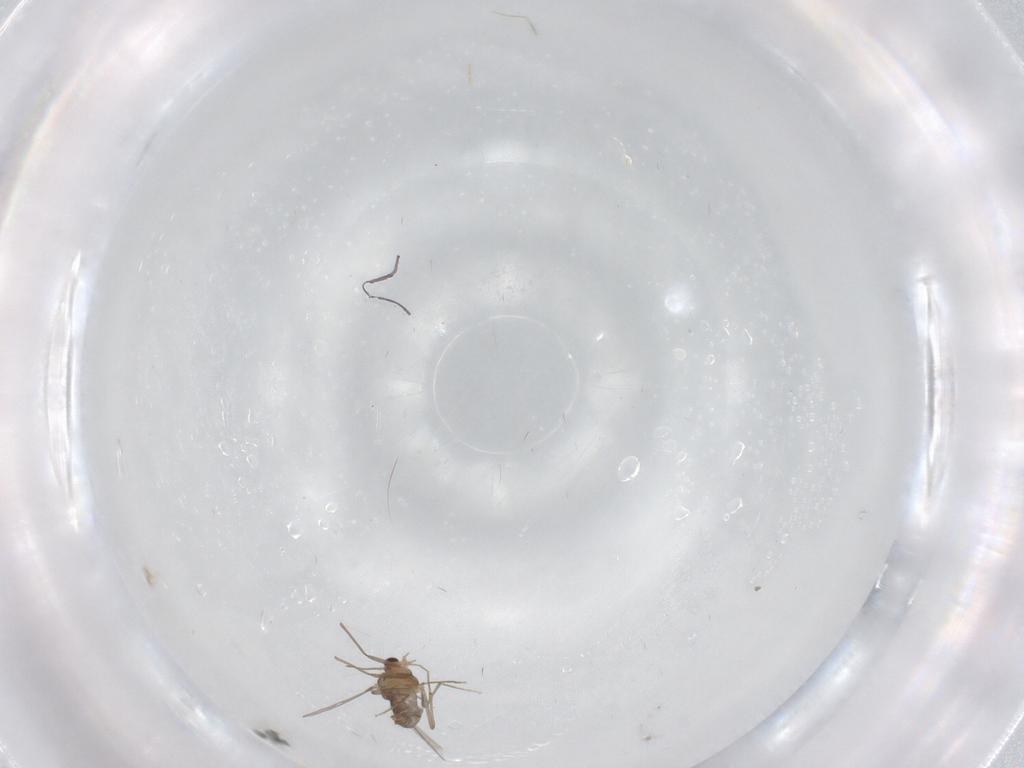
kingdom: Animalia
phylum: Arthropoda
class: Insecta
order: Diptera
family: Chironomidae
